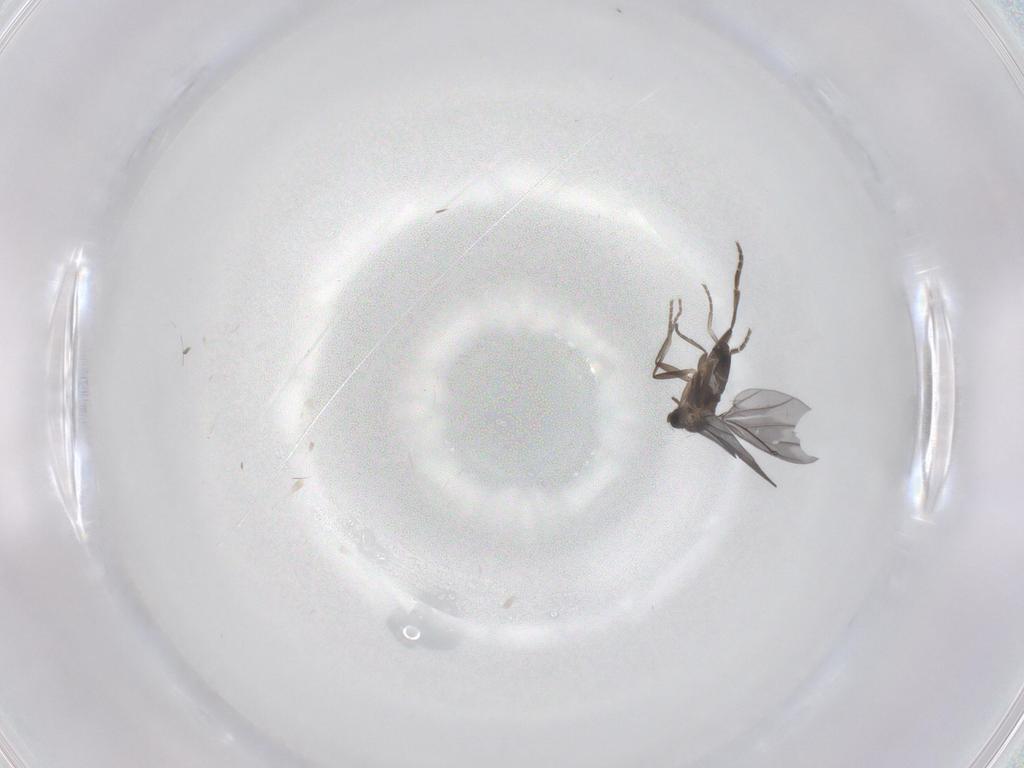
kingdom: Animalia
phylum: Arthropoda
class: Insecta
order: Diptera
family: Phoridae
